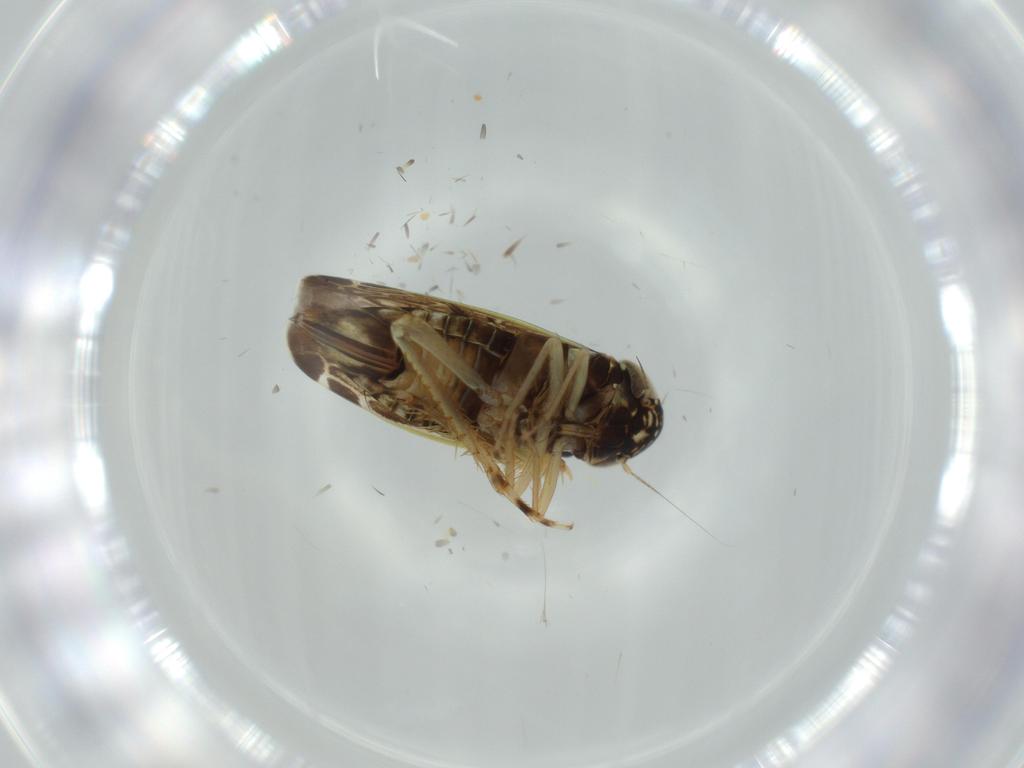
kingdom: Animalia
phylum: Arthropoda
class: Insecta
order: Hemiptera
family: Cicadellidae
